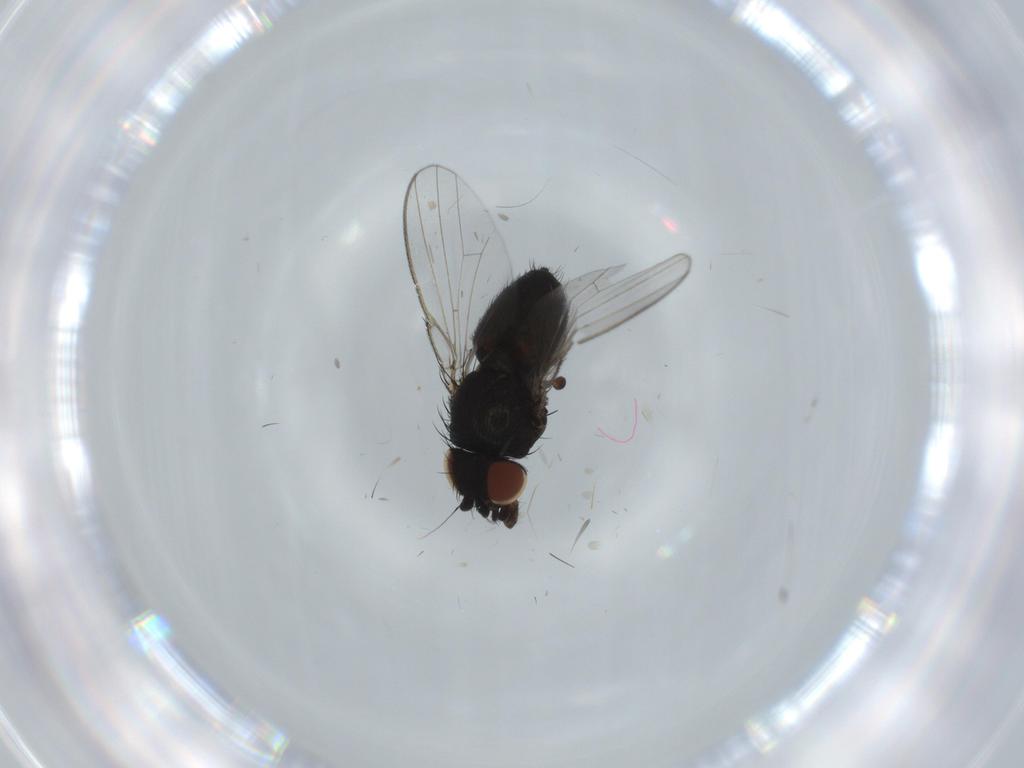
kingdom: Animalia
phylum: Arthropoda
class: Insecta
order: Diptera
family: Milichiidae
